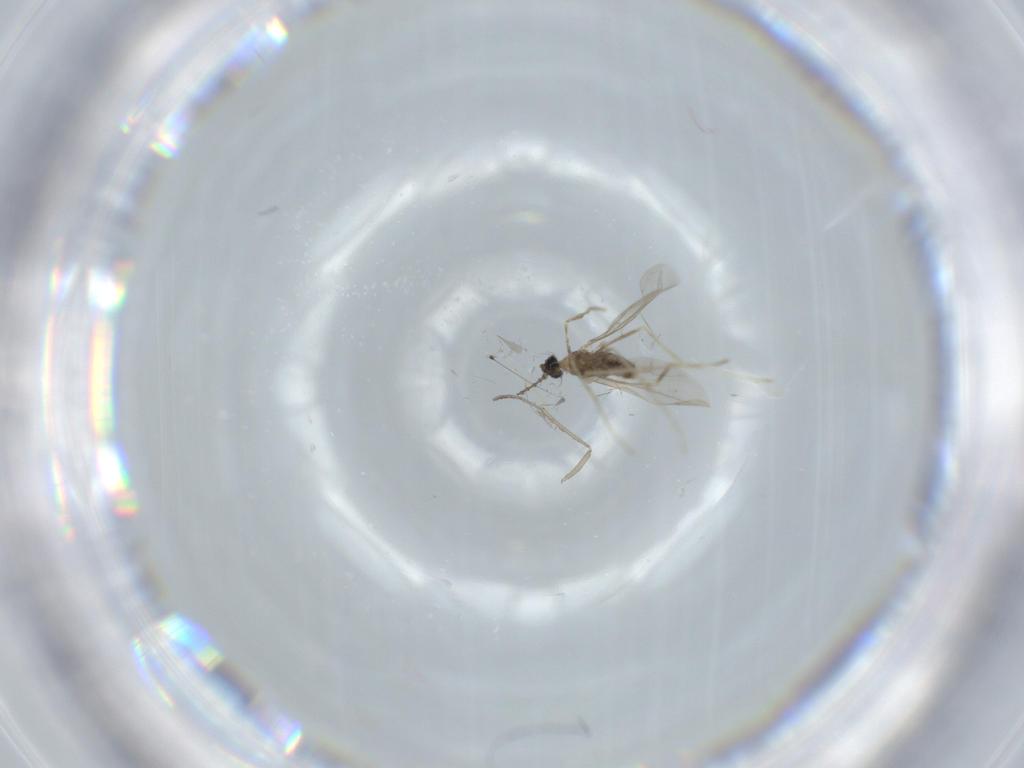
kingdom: Animalia
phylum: Arthropoda
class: Insecta
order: Diptera
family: Cecidomyiidae
